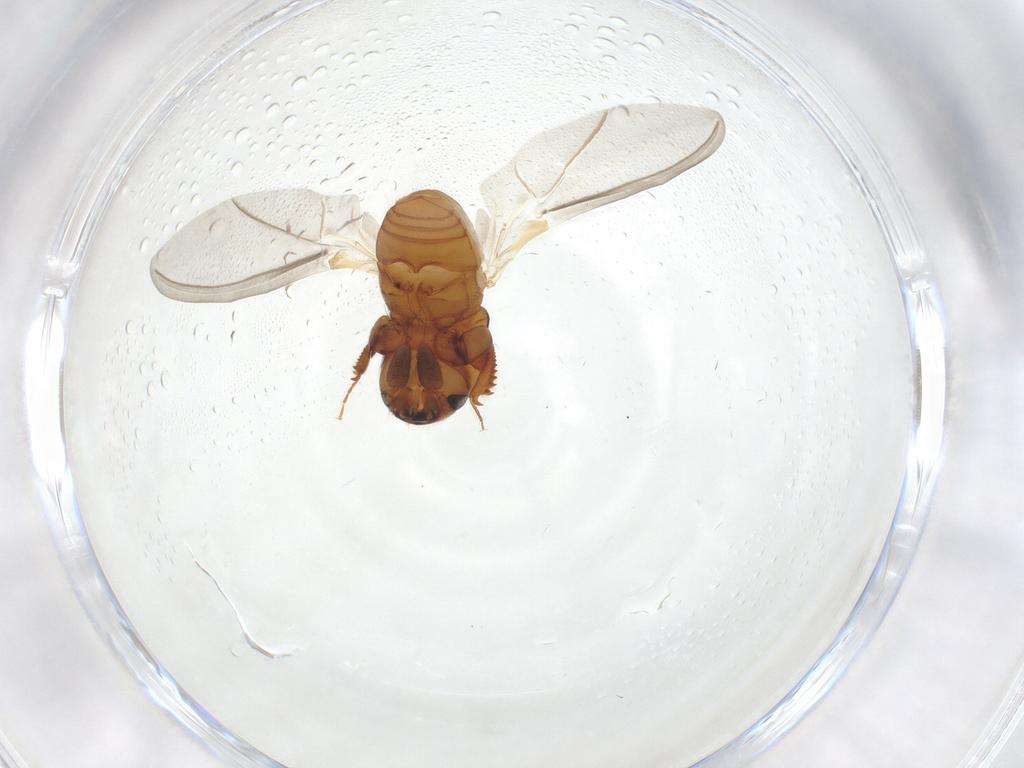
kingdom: Animalia
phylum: Arthropoda
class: Insecta
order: Coleoptera
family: Curculionidae
